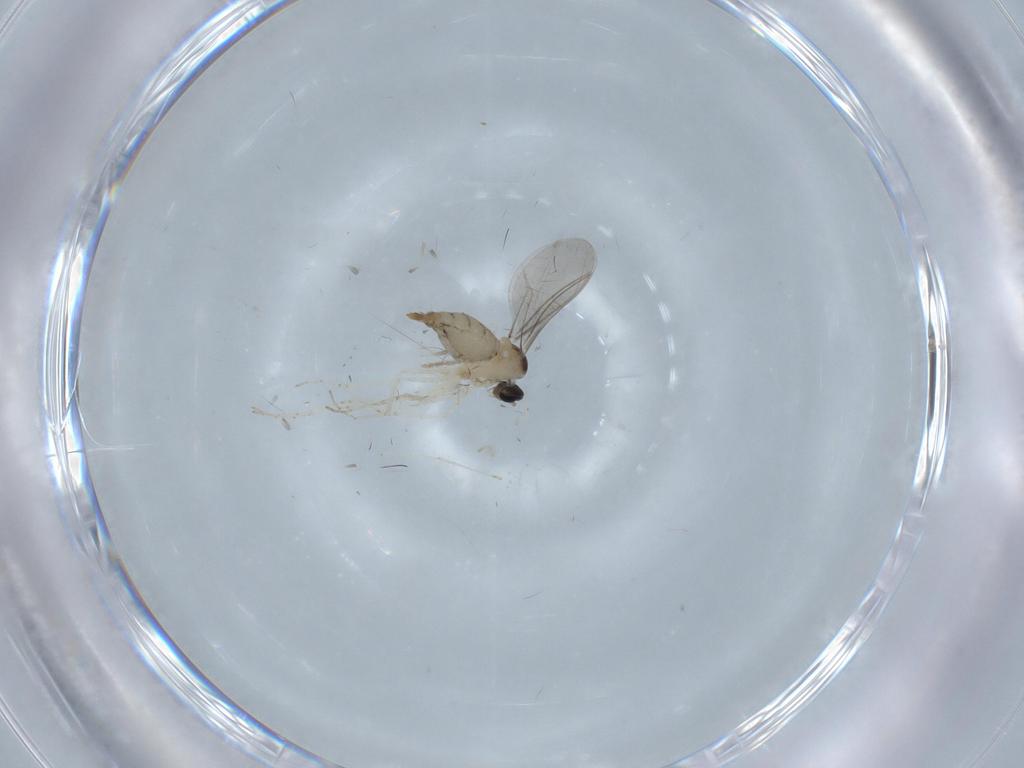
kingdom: Animalia
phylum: Arthropoda
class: Insecta
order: Diptera
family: Cecidomyiidae
